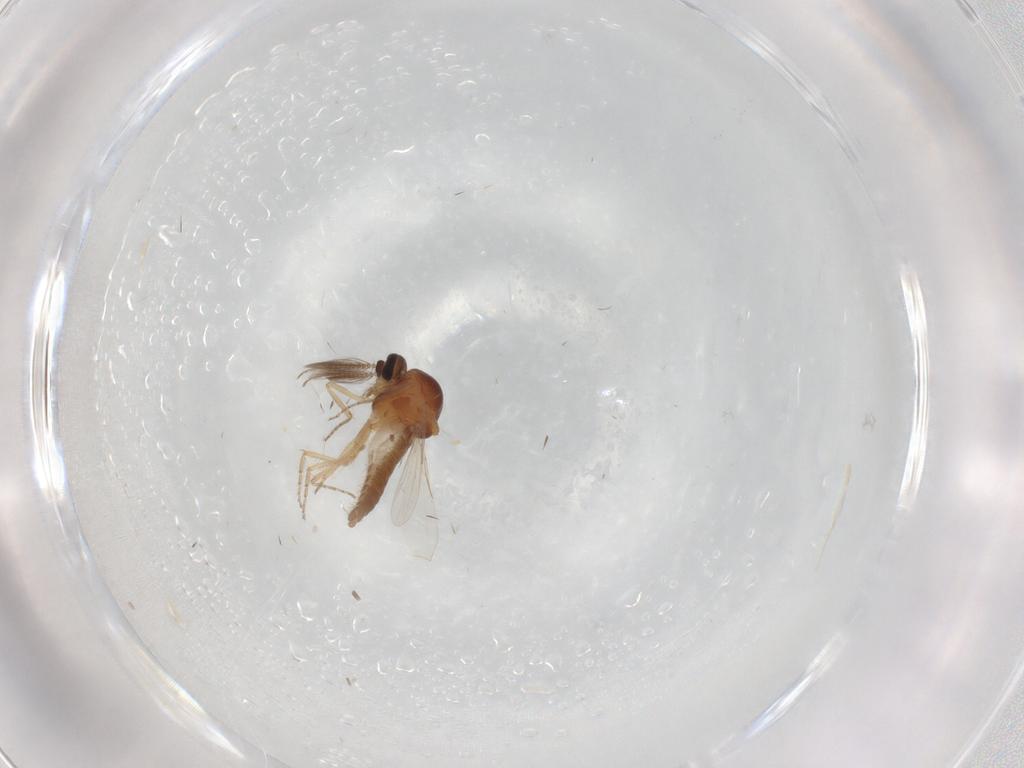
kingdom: Animalia
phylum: Arthropoda
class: Insecta
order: Diptera
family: Ceratopogonidae
